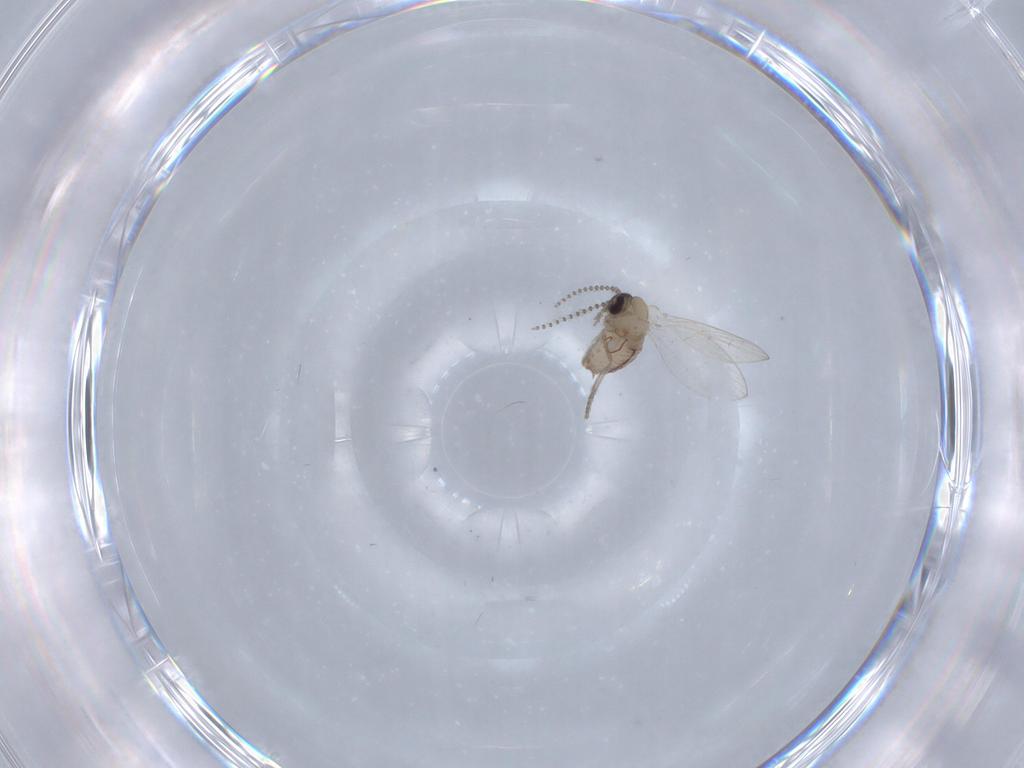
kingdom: Animalia
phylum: Arthropoda
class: Insecta
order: Diptera
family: Psychodidae
